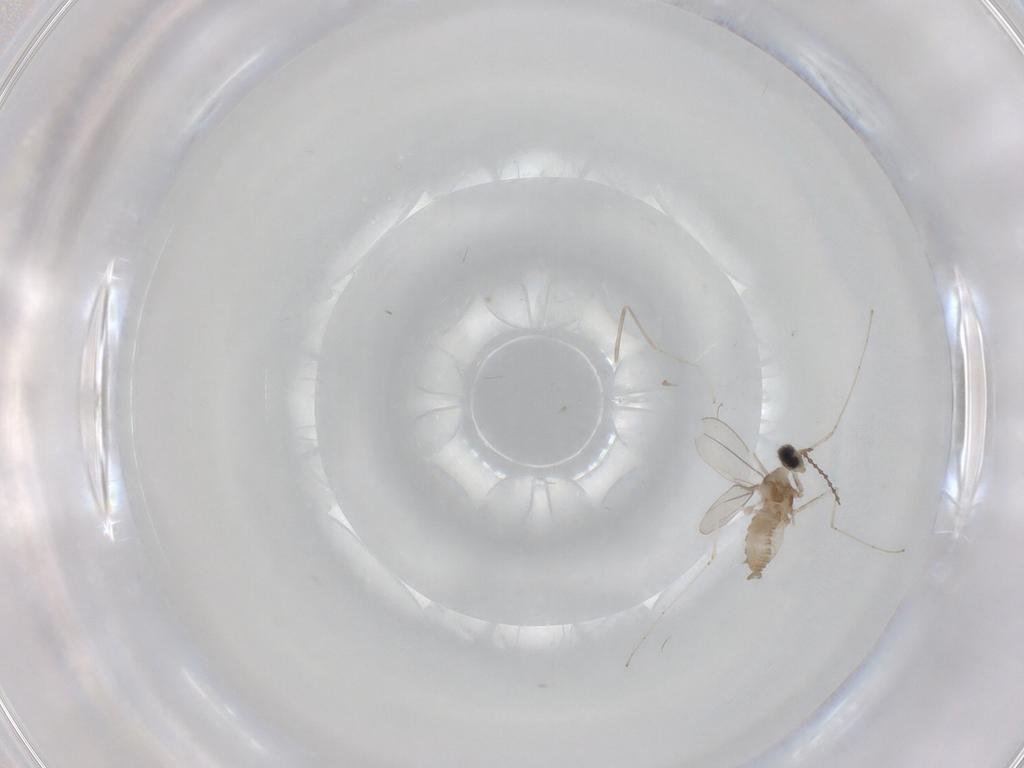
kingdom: Animalia
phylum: Arthropoda
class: Insecta
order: Diptera
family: Cecidomyiidae
